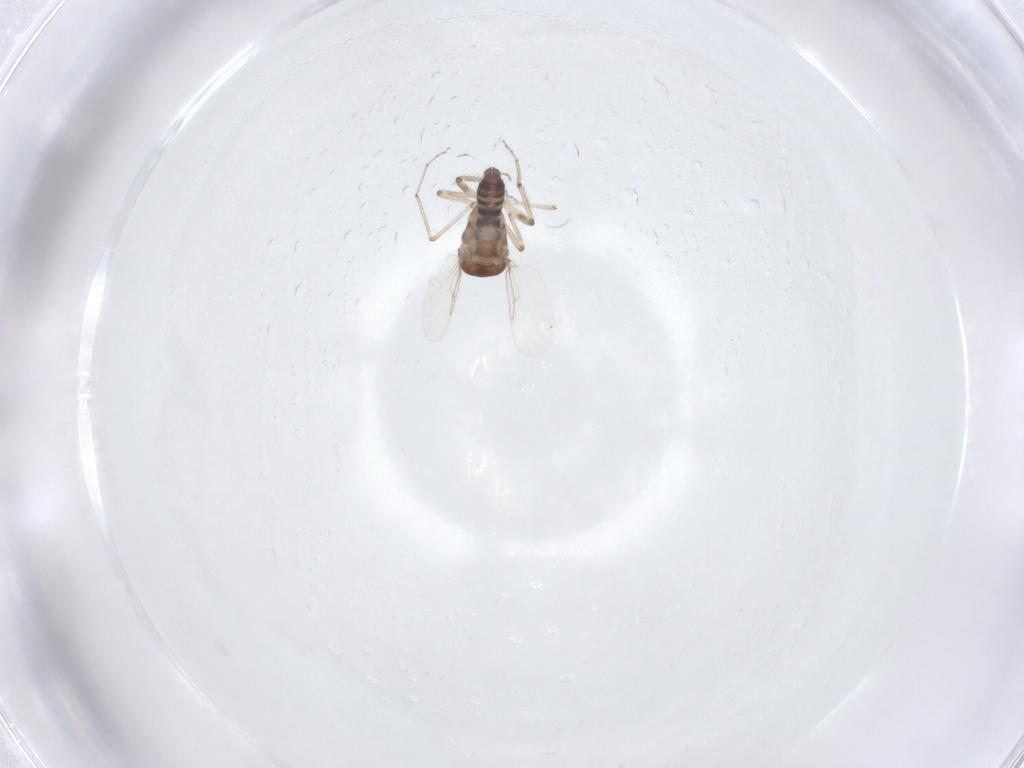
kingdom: Animalia
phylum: Arthropoda
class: Insecta
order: Diptera
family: Ceratopogonidae
